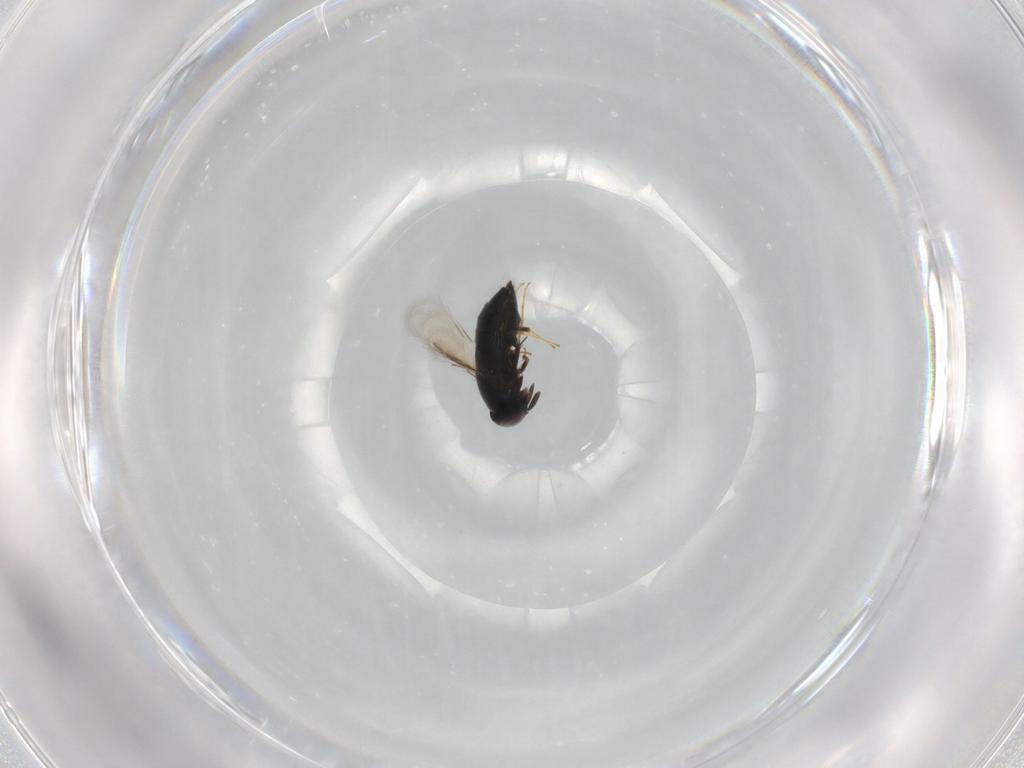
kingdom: Animalia
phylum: Arthropoda
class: Insecta
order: Hymenoptera
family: Signiphoridae
